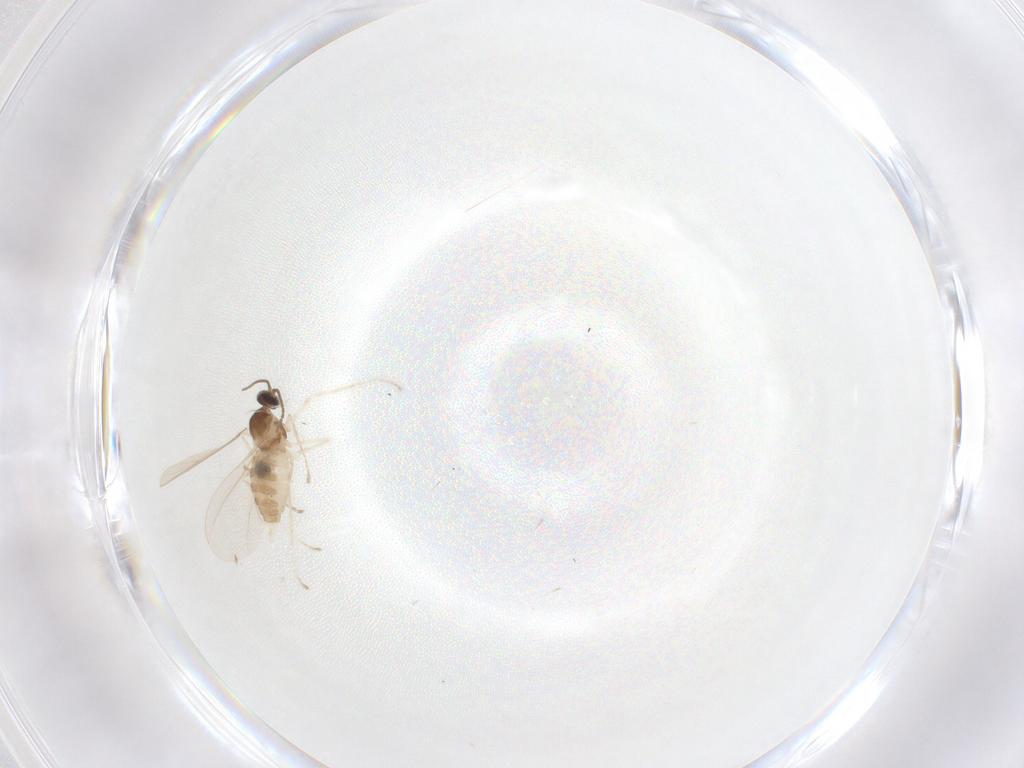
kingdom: Animalia
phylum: Arthropoda
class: Insecta
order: Diptera
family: Cecidomyiidae
